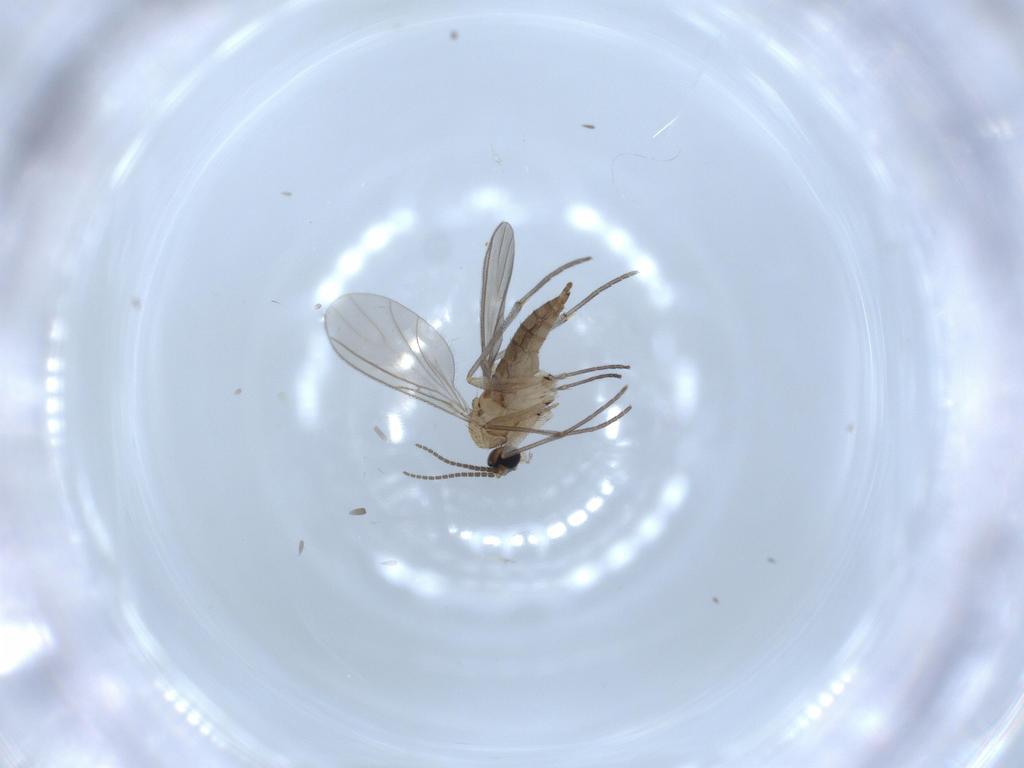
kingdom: Animalia
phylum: Arthropoda
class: Insecta
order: Diptera
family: Sciaridae
